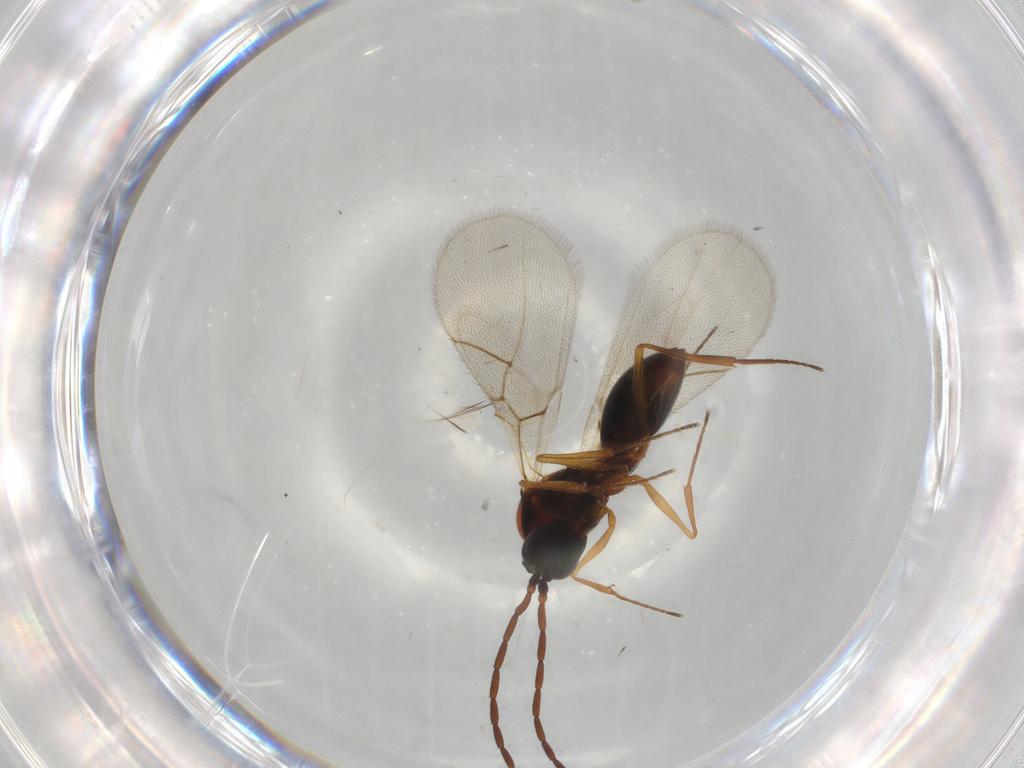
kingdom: Animalia
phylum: Arthropoda
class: Insecta
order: Hymenoptera
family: Figitidae
